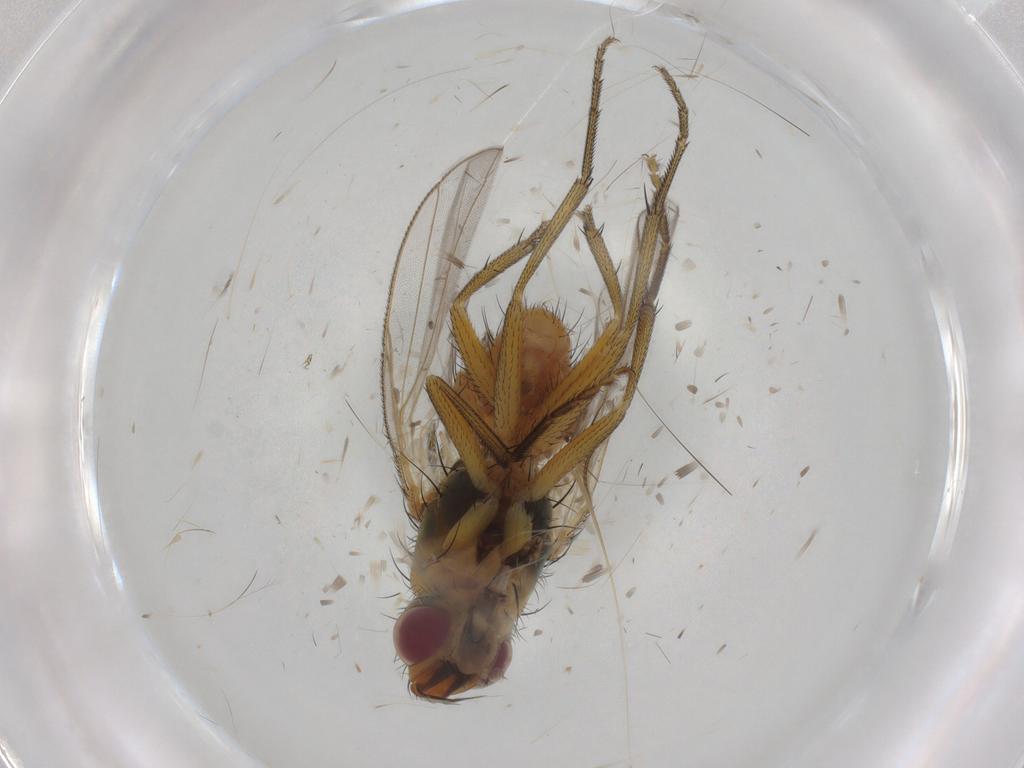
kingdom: Animalia
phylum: Arthropoda
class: Insecta
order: Diptera
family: Muscidae
